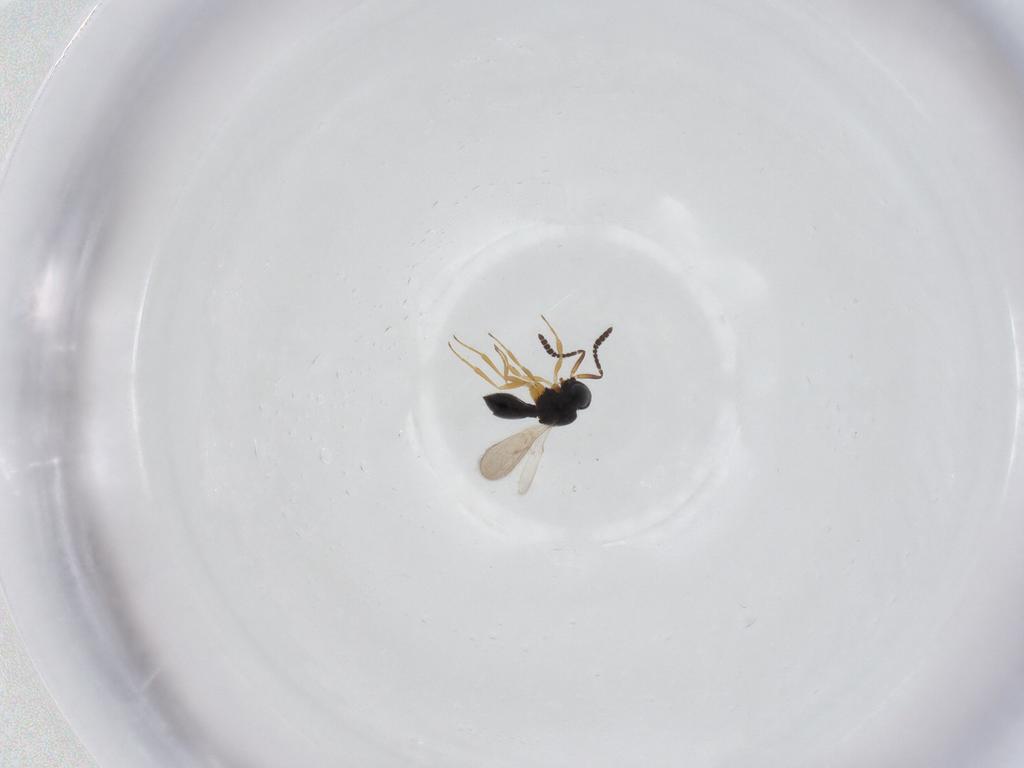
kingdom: Animalia
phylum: Arthropoda
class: Insecta
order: Hymenoptera
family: Scelionidae
